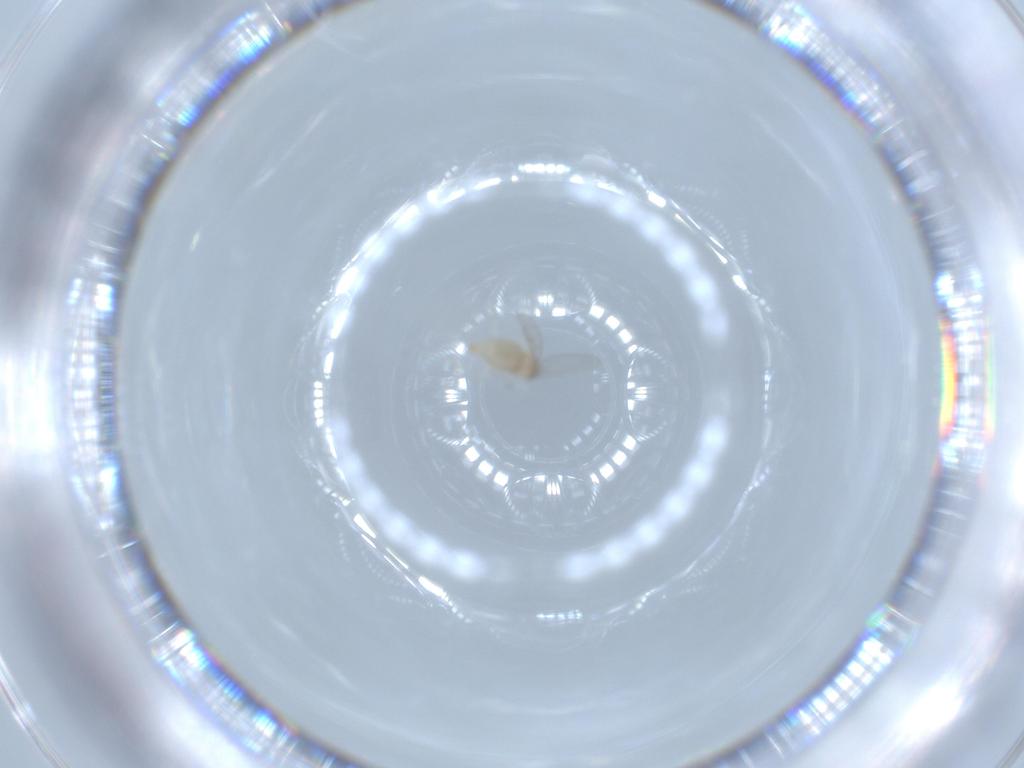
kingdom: Animalia
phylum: Arthropoda
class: Insecta
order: Diptera
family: Cecidomyiidae
